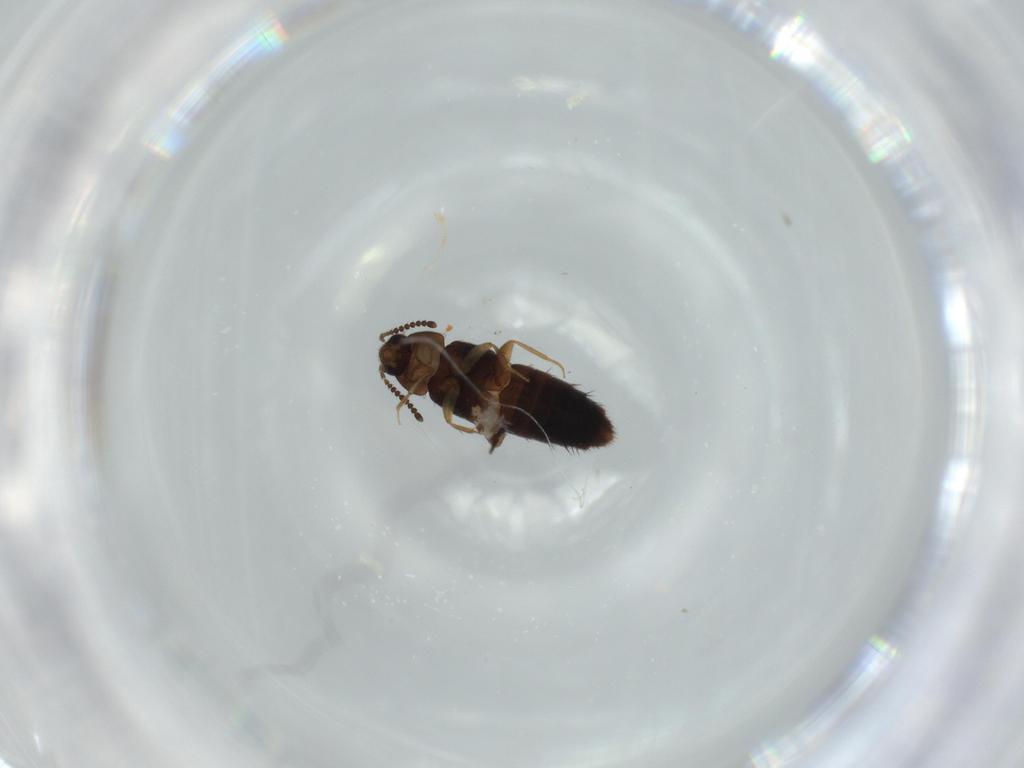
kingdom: Animalia
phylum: Arthropoda
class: Insecta
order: Coleoptera
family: Staphylinidae
